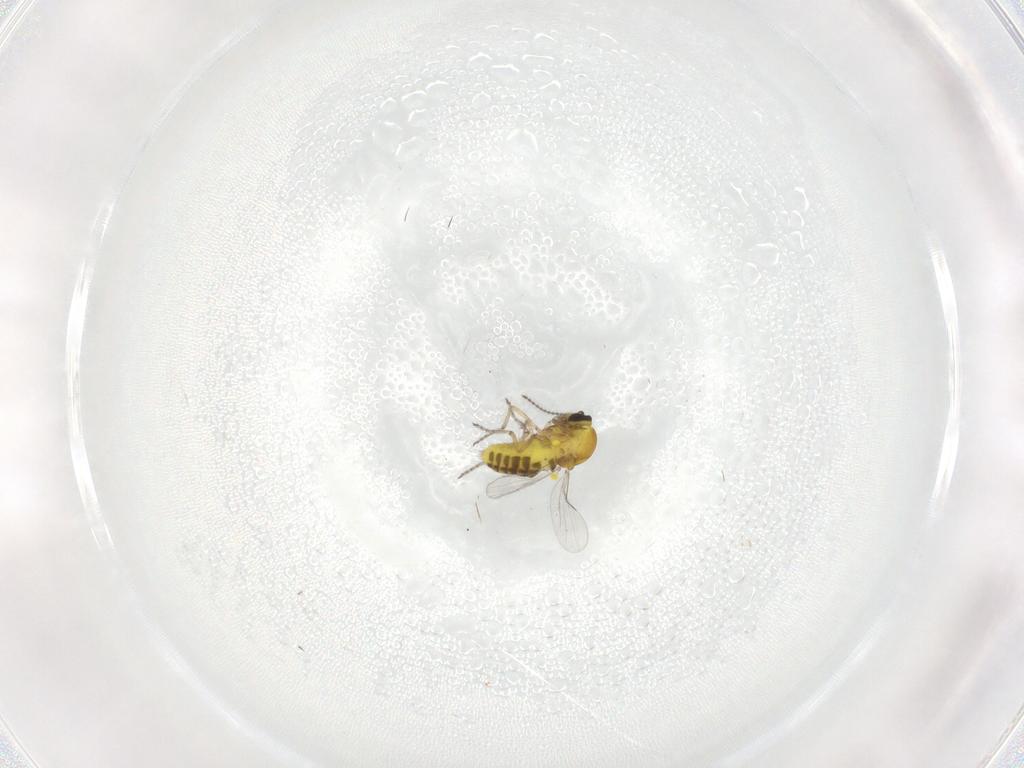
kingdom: Animalia
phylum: Arthropoda
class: Insecta
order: Diptera
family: Ceratopogonidae
